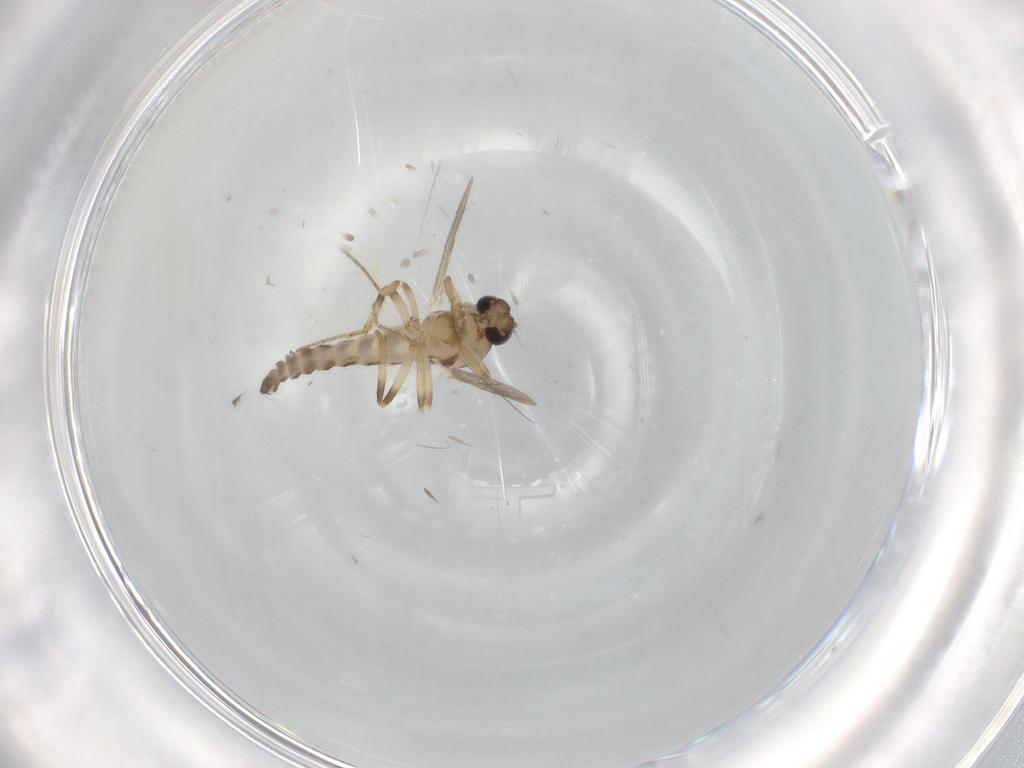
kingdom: Animalia
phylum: Arthropoda
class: Insecta
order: Diptera
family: Ceratopogonidae
